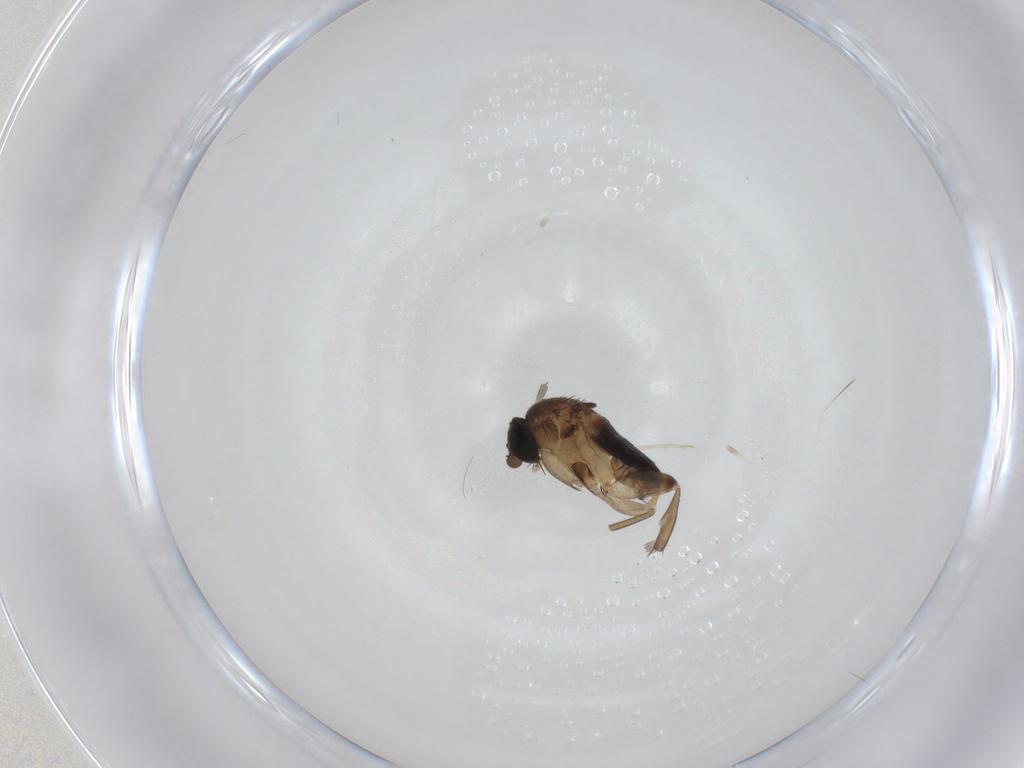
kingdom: Animalia
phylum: Arthropoda
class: Insecta
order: Diptera
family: Phoridae
